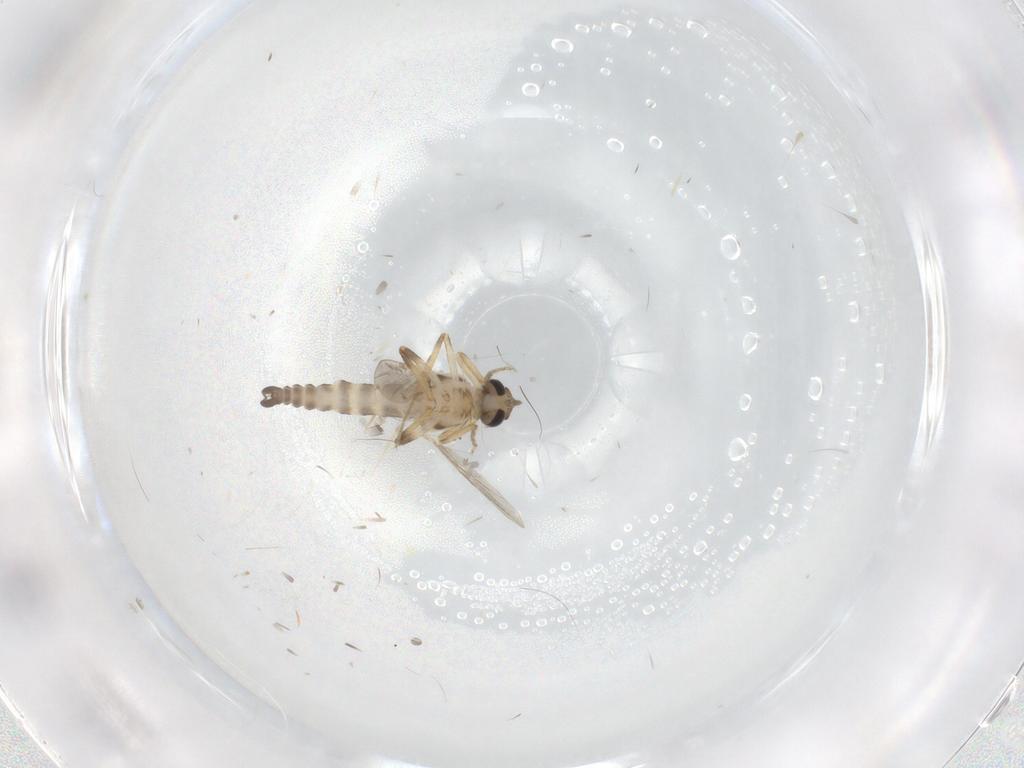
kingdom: Animalia
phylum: Arthropoda
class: Insecta
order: Diptera
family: Ceratopogonidae
